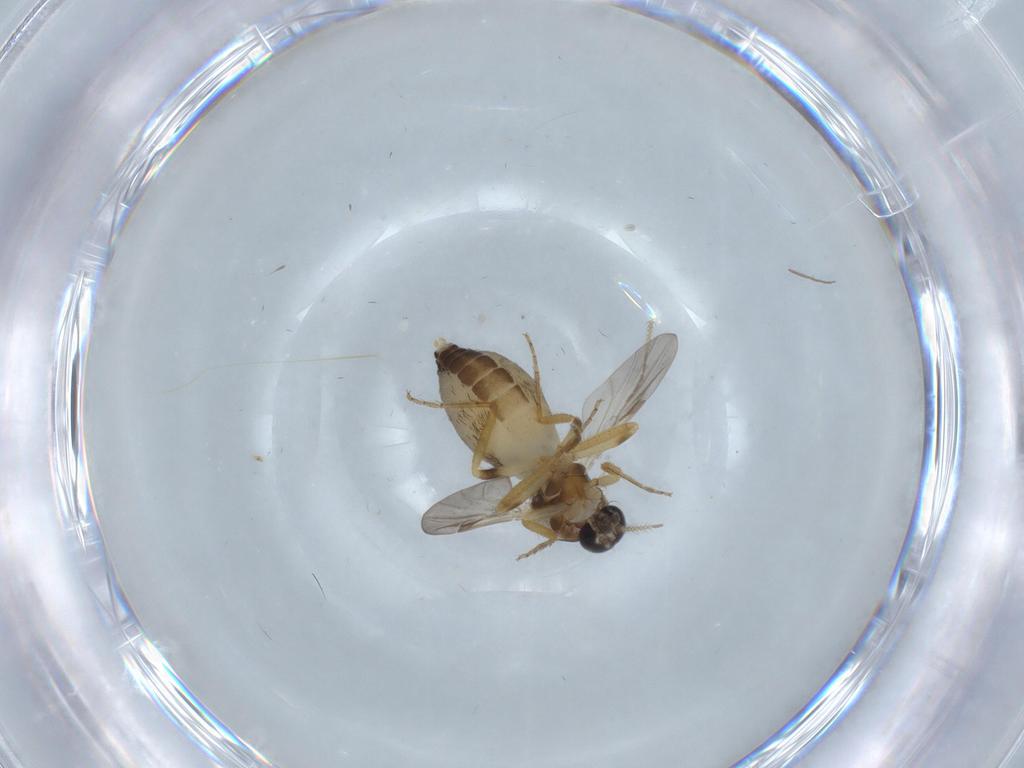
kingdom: Animalia
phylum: Arthropoda
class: Insecta
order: Diptera
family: Ceratopogonidae
